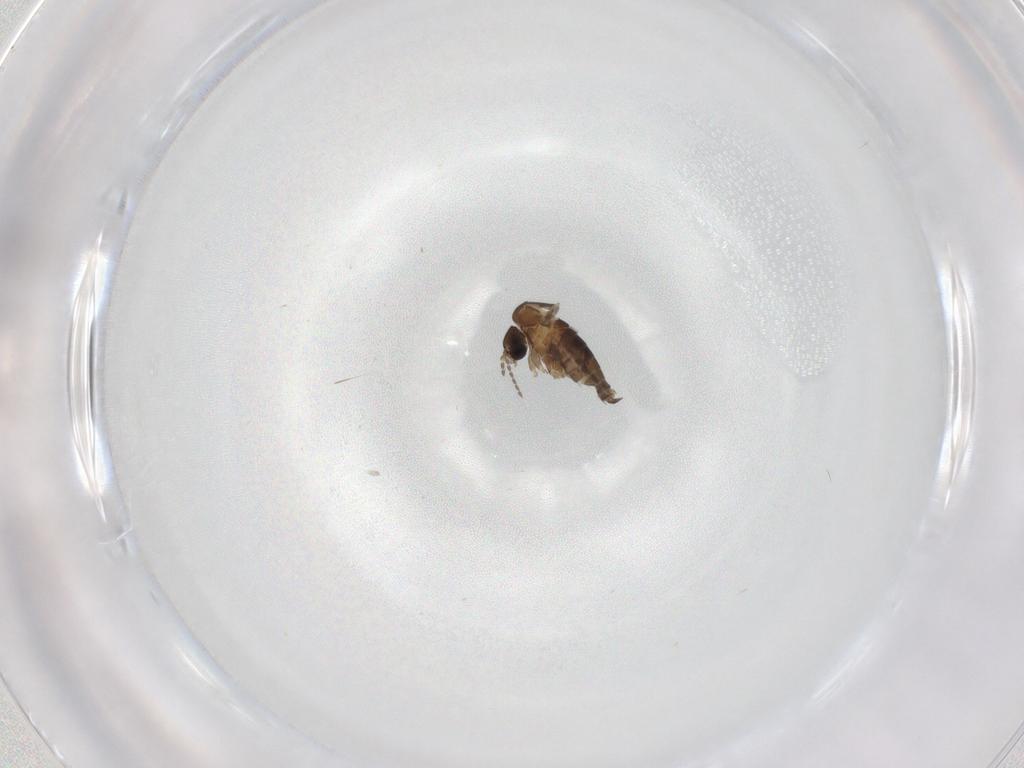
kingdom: Animalia
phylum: Arthropoda
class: Insecta
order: Diptera
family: Psychodidae
